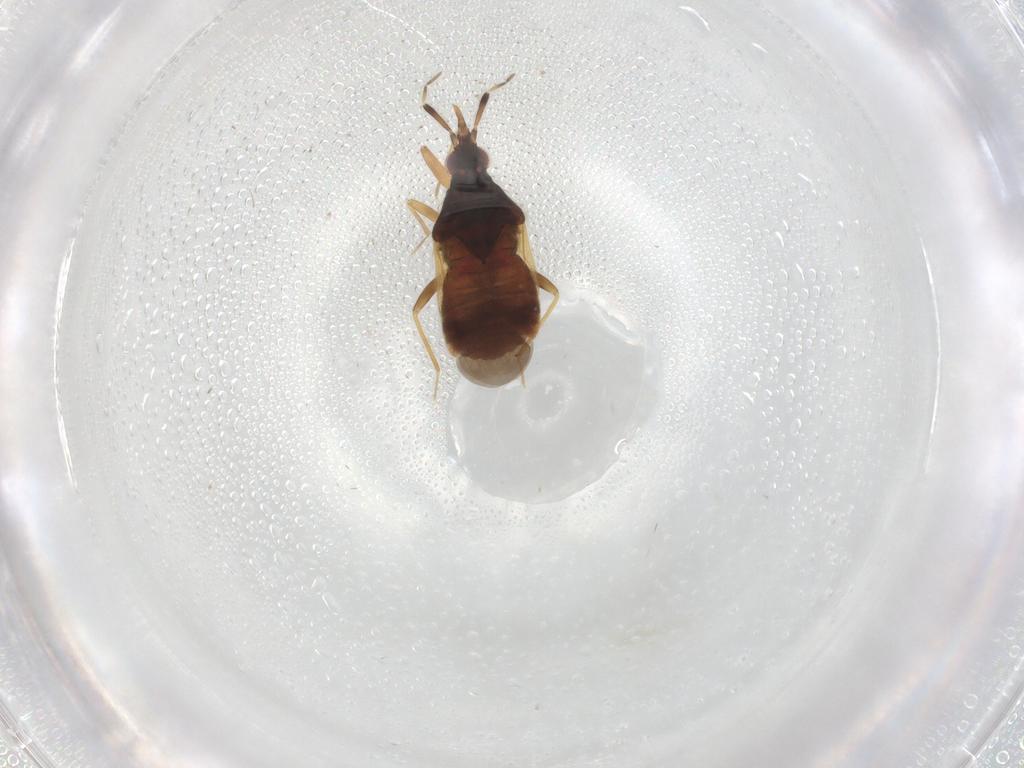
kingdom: Animalia
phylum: Arthropoda
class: Insecta
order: Hemiptera
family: Anthocoridae
